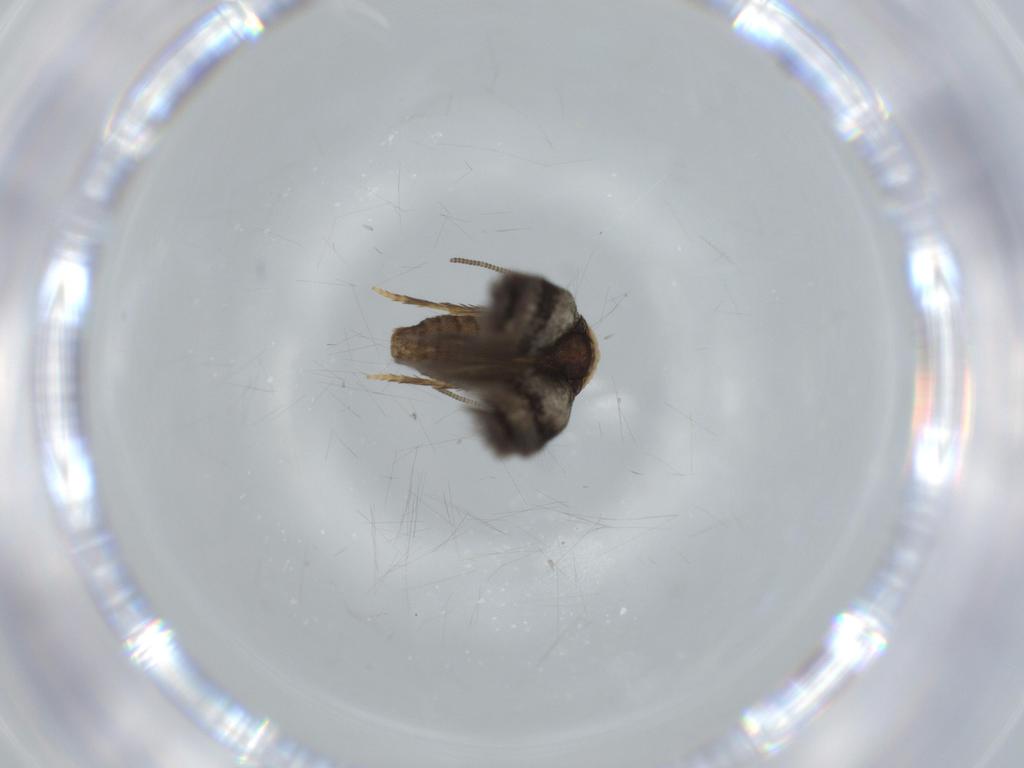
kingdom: Animalia
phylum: Arthropoda
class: Insecta
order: Lepidoptera
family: Nepticulidae
